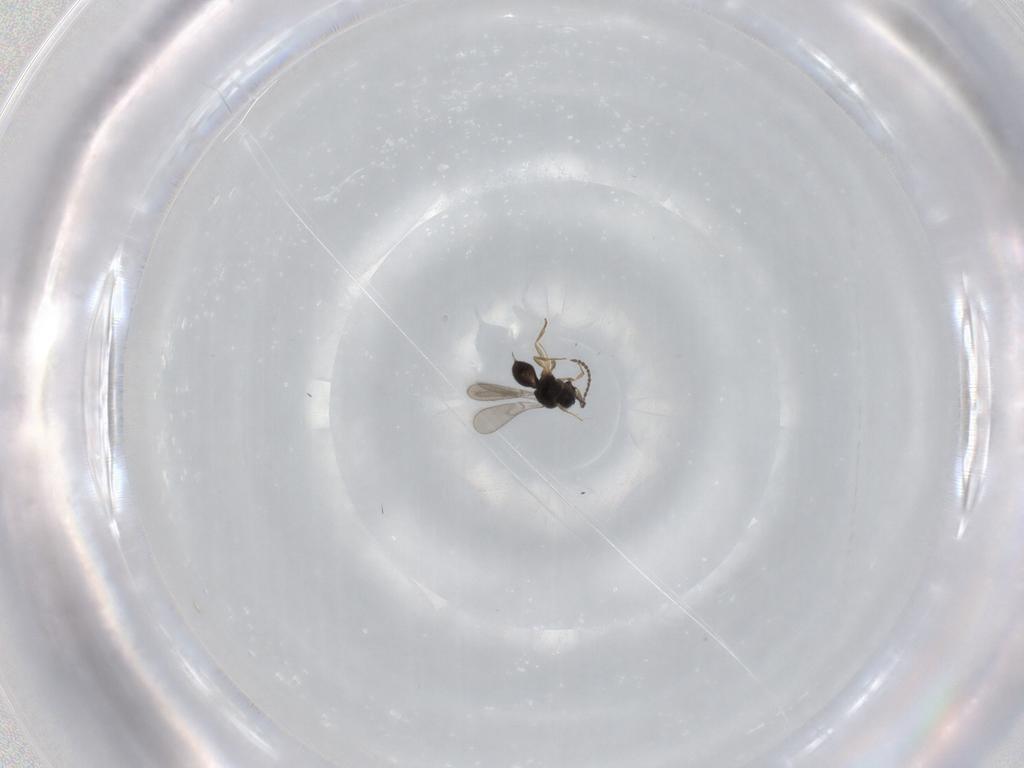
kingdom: Animalia
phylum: Arthropoda
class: Insecta
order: Hymenoptera
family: Scelionidae
